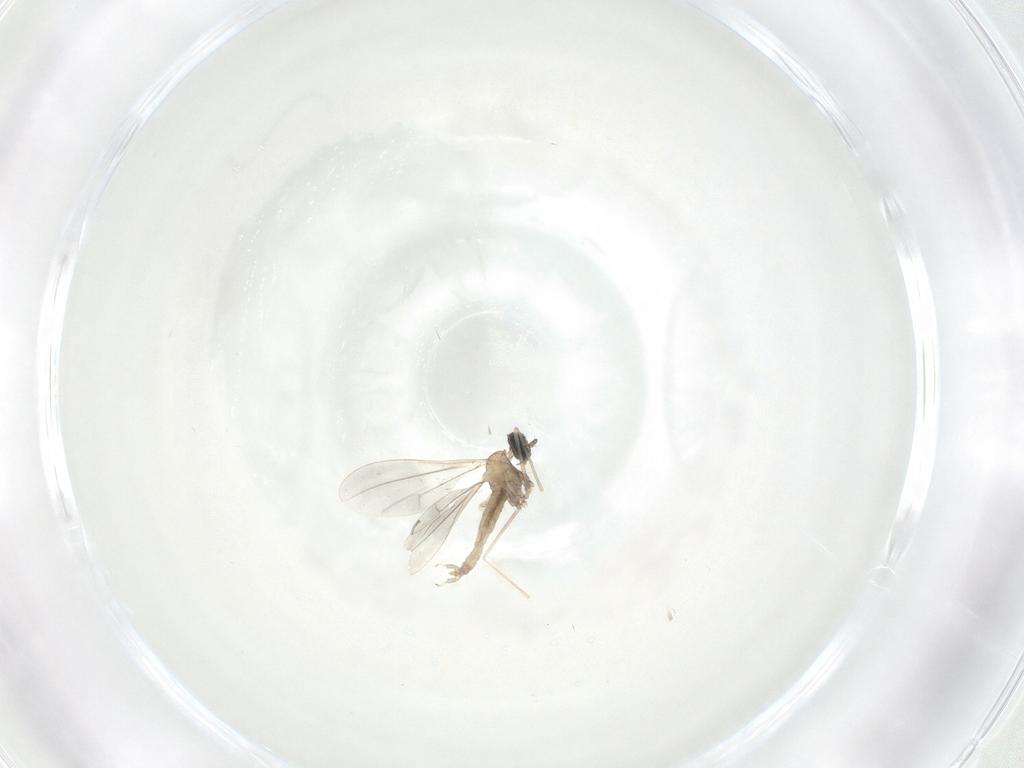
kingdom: Animalia
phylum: Arthropoda
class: Insecta
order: Diptera
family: Cecidomyiidae
